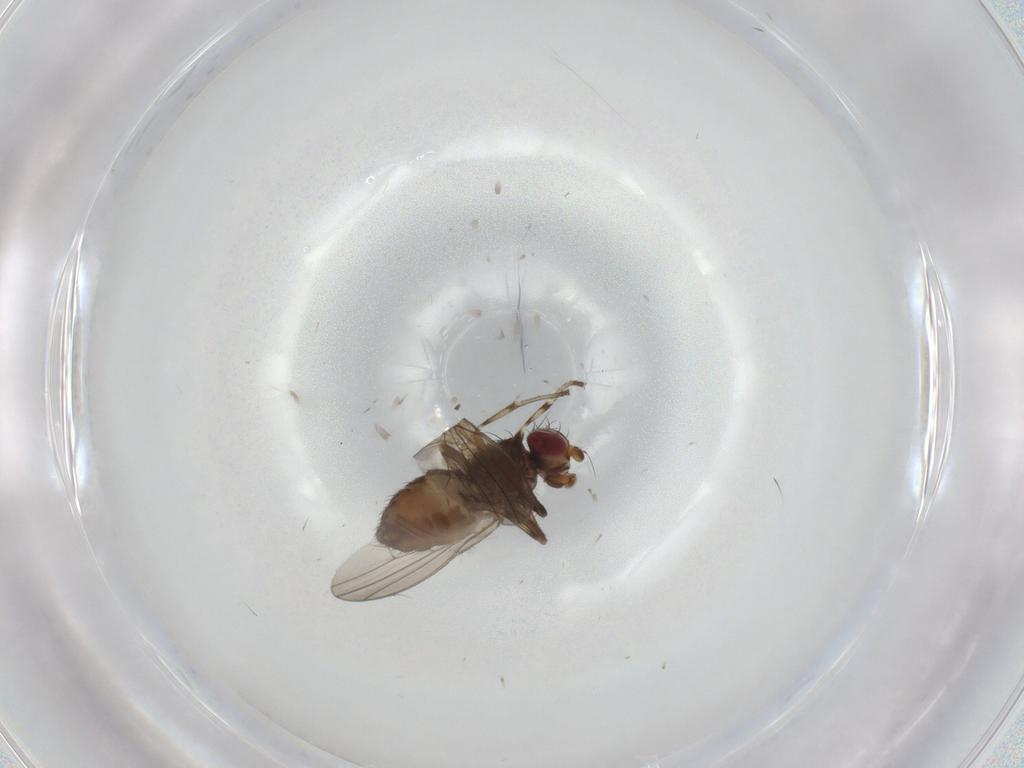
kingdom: Animalia
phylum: Arthropoda
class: Insecta
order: Diptera
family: Heleomyzidae
